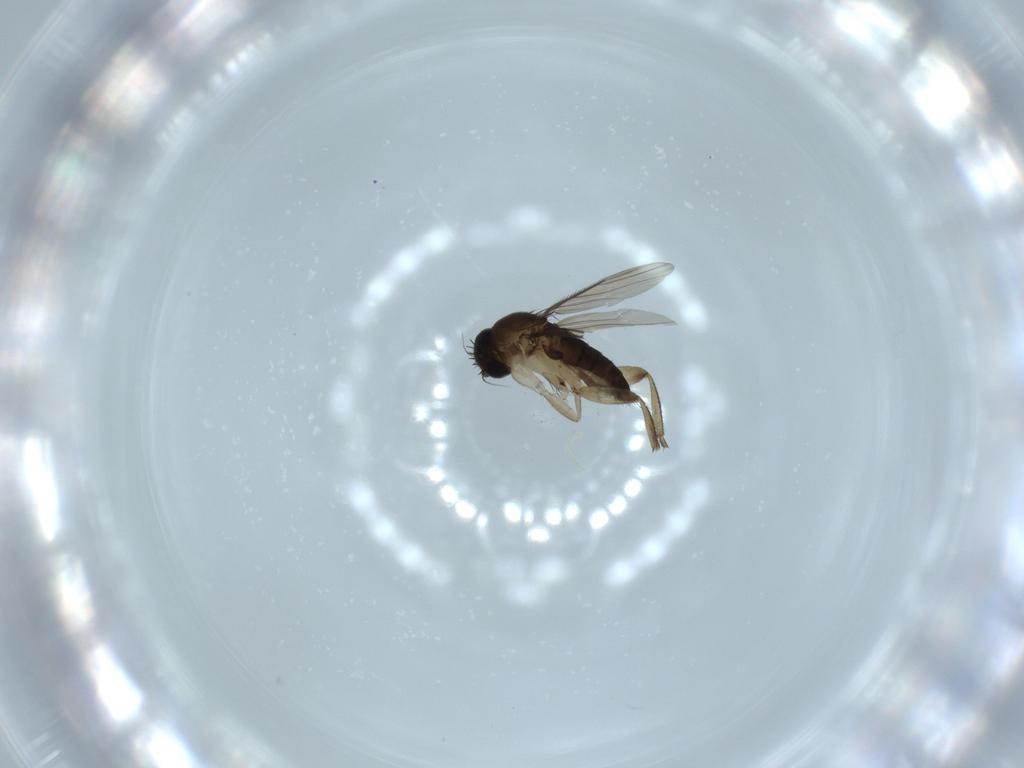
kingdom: Animalia
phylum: Arthropoda
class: Insecta
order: Diptera
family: Phoridae
